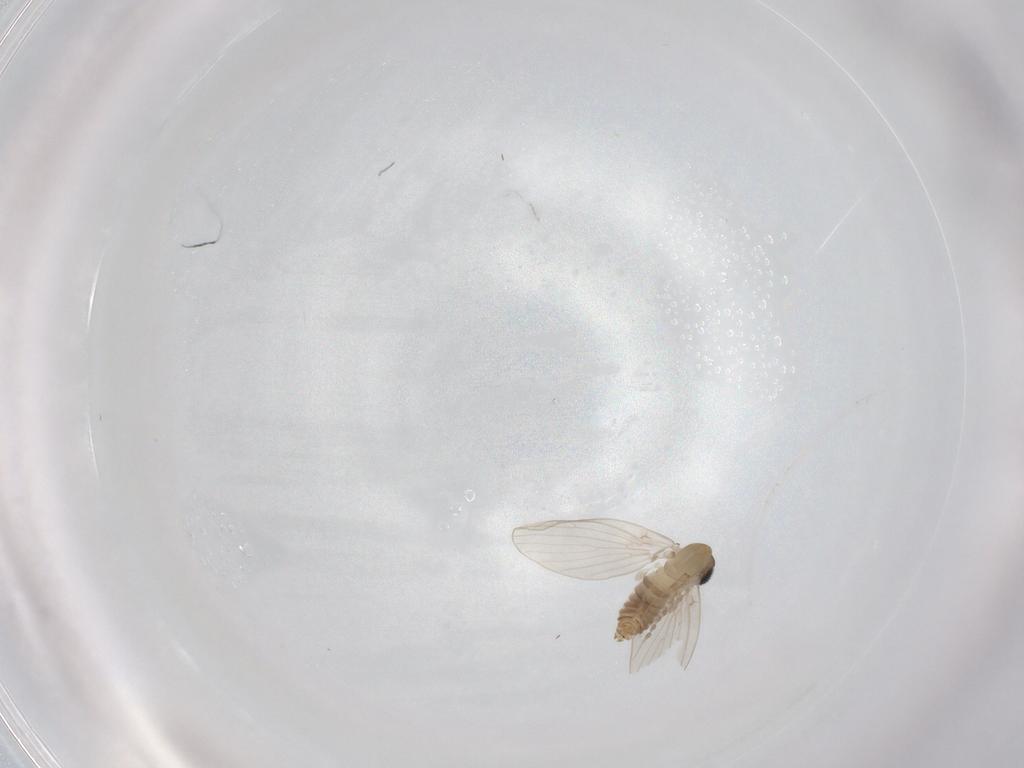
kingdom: Animalia
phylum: Arthropoda
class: Insecta
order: Diptera
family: Psychodidae
